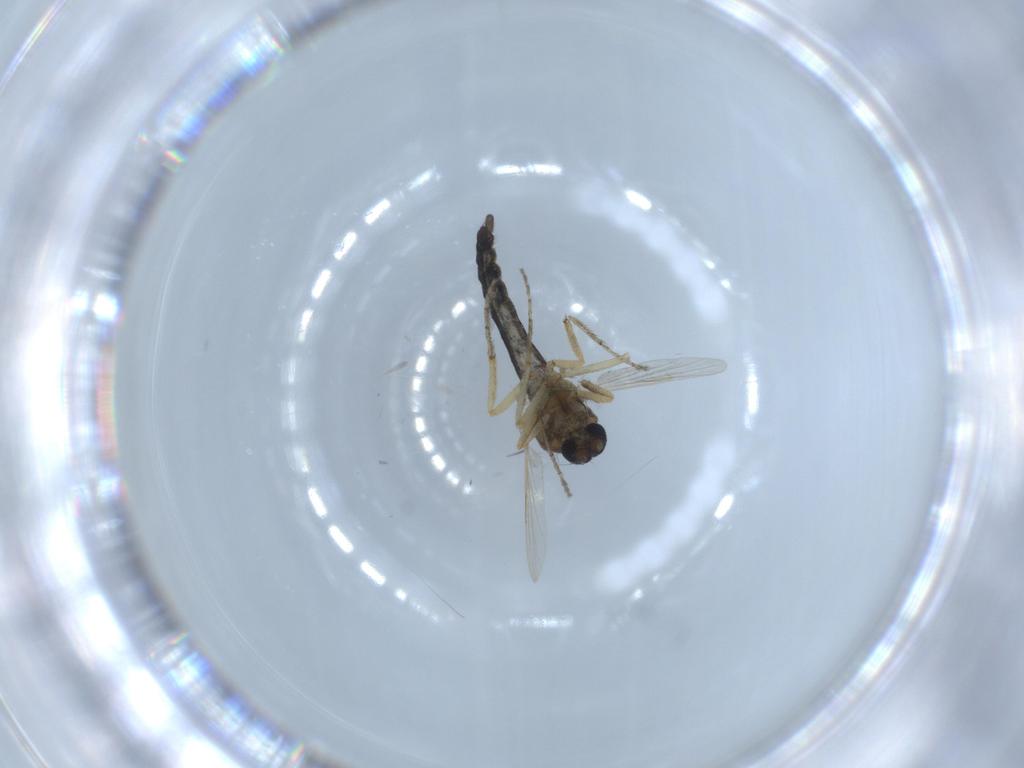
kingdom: Animalia
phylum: Arthropoda
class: Insecta
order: Diptera
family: Ceratopogonidae
